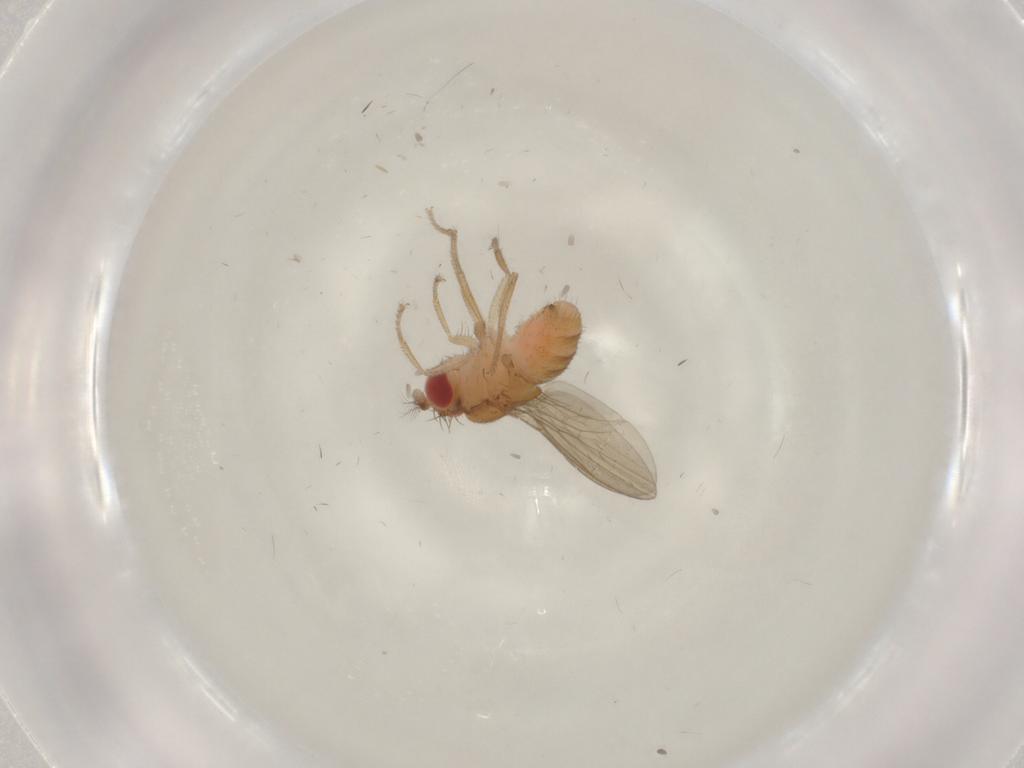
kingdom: Animalia
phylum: Arthropoda
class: Insecta
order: Diptera
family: Drosophilidae
